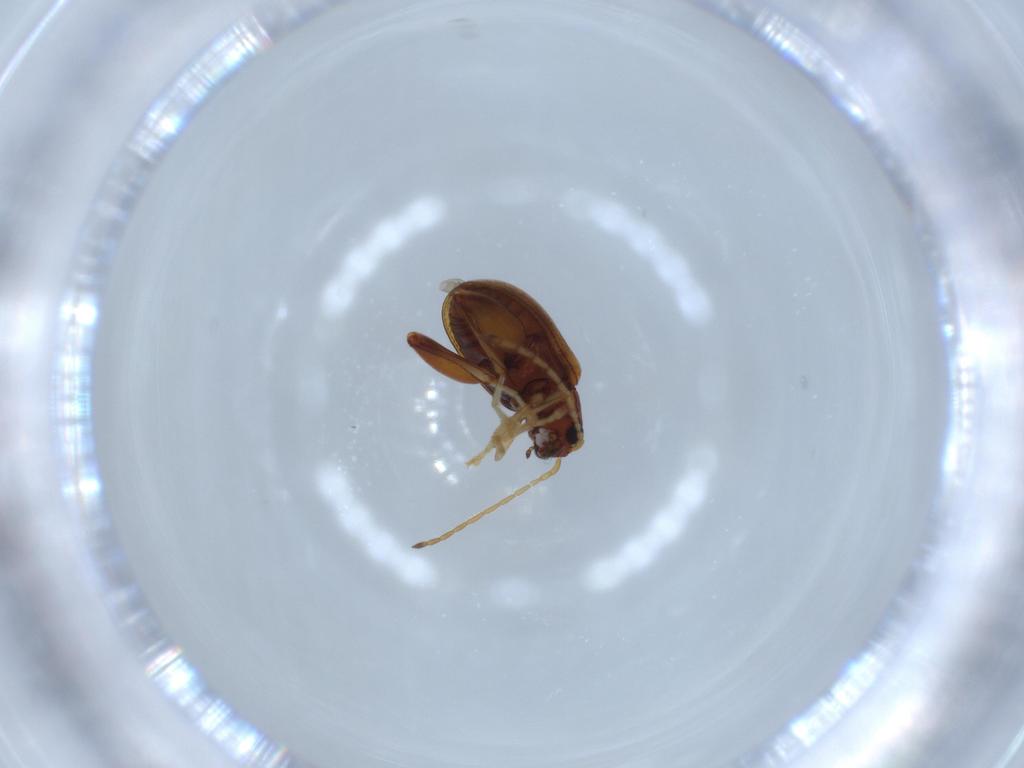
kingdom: Animalia
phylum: Arthropoda
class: Insecta
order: Coleoptera
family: Chrysomelidae
